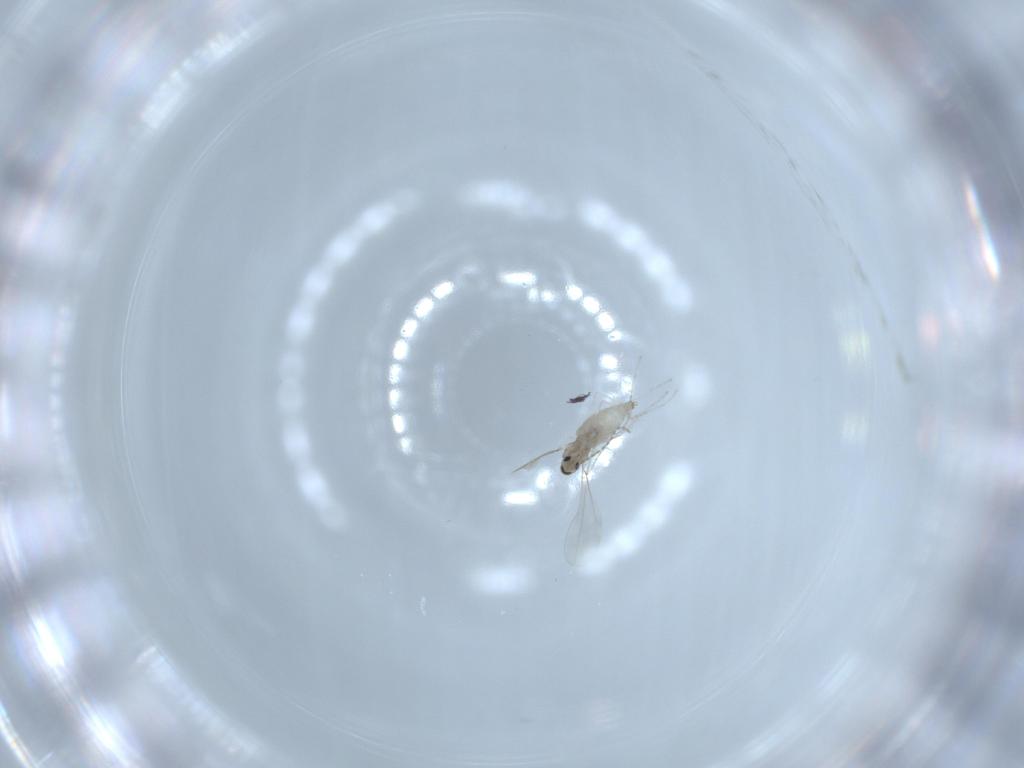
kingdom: Animalia
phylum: Arthropoda
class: Insecta
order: Diptera
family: Cecidomyiidae
